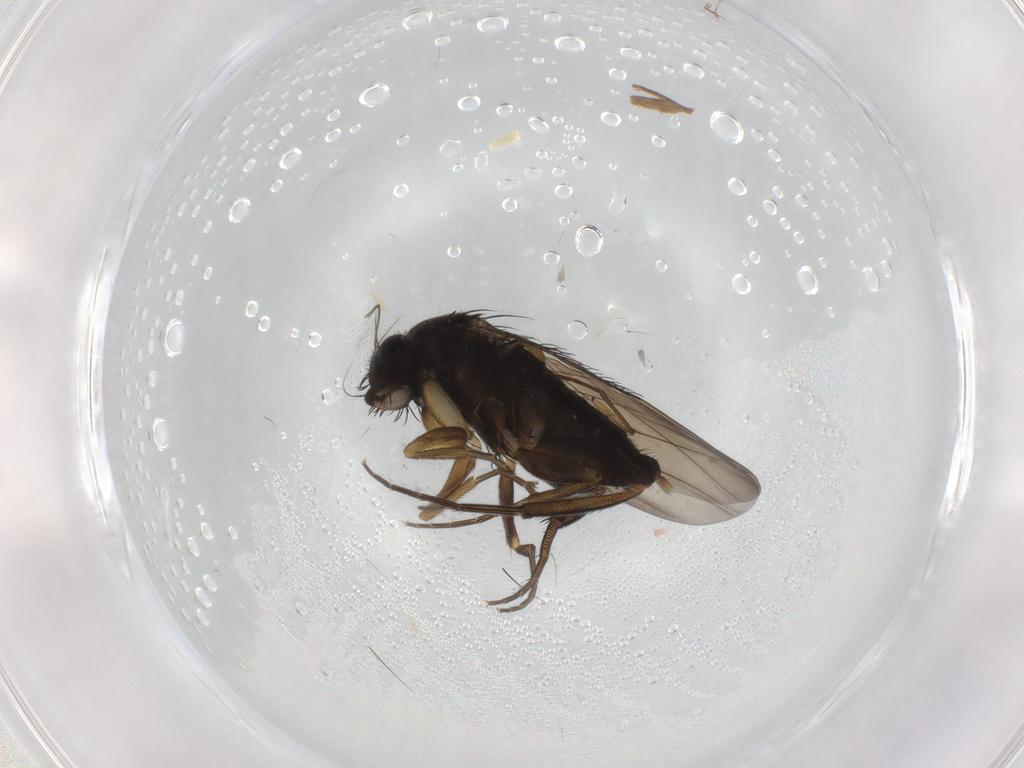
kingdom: Animalia
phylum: Arthropoda
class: Insecta
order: Diptera
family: Phoridae
